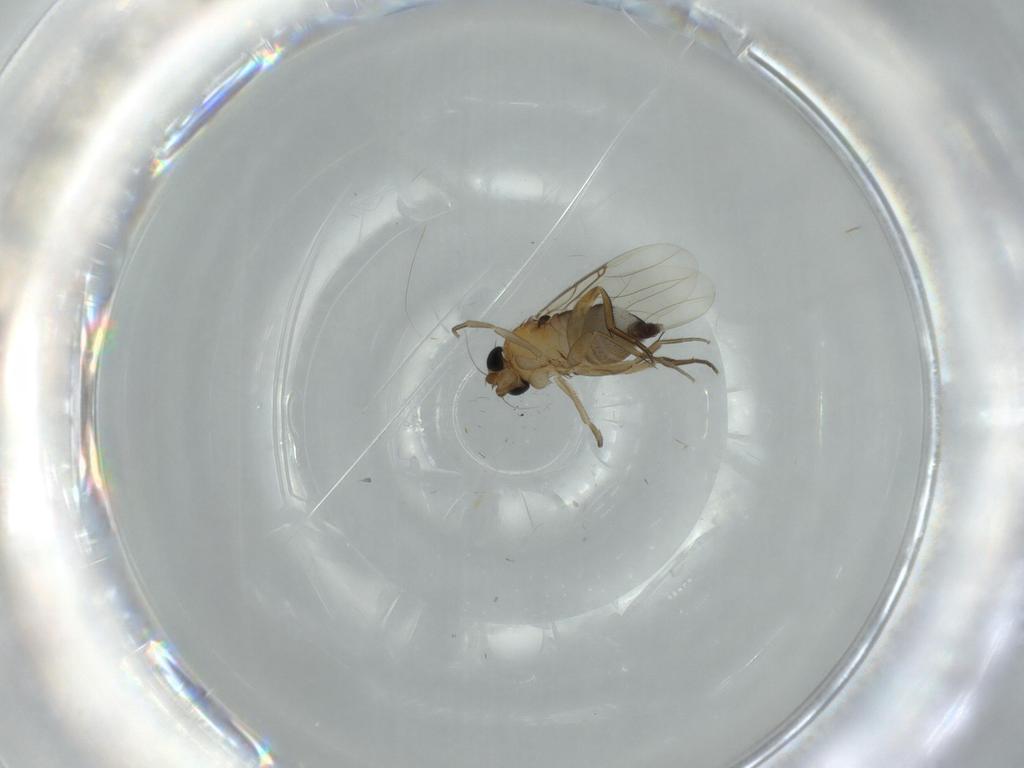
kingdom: Animalia
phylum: Arthropoda
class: Insecta
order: Diptera
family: Phoridae
